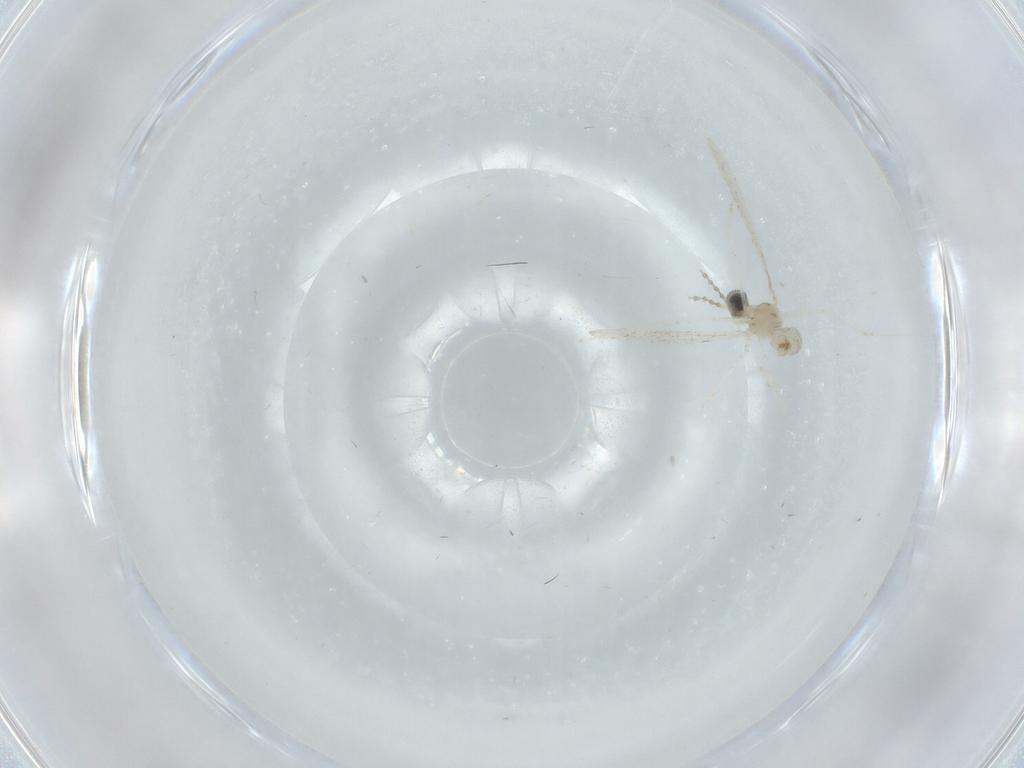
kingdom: Animalia
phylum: Arthropoda
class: Insecta
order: Diptera
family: Cecidomyiidae
